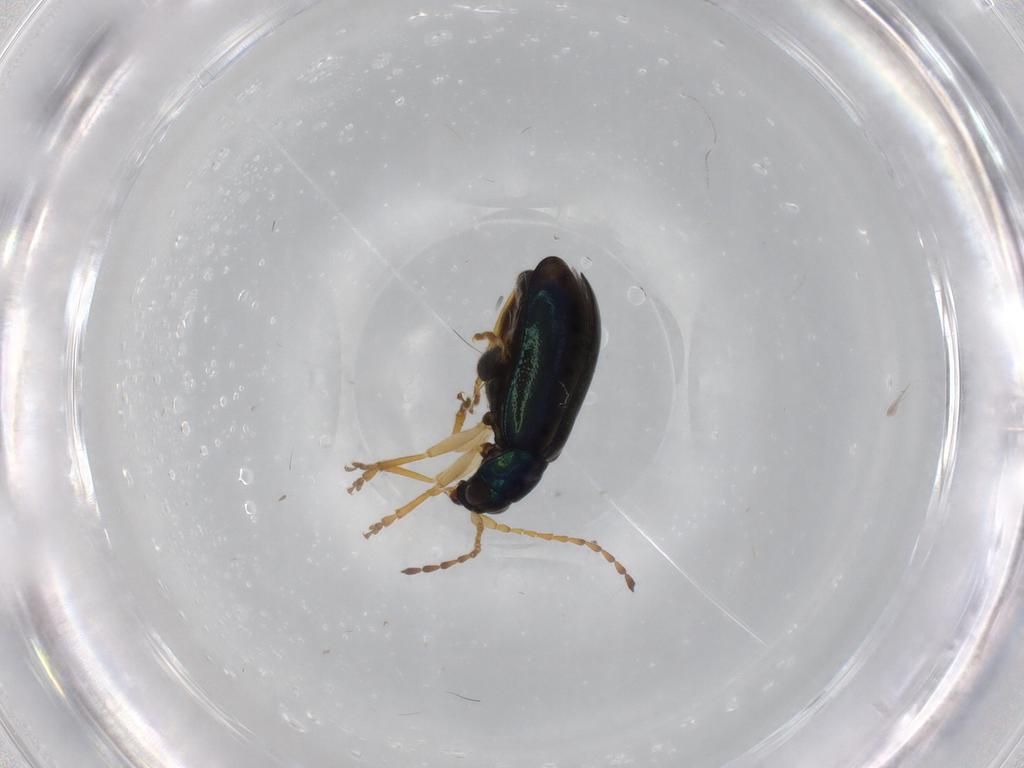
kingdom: Animalia
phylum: Arthropoda
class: Insecta
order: Coleoptera
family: Chrysomelidae
